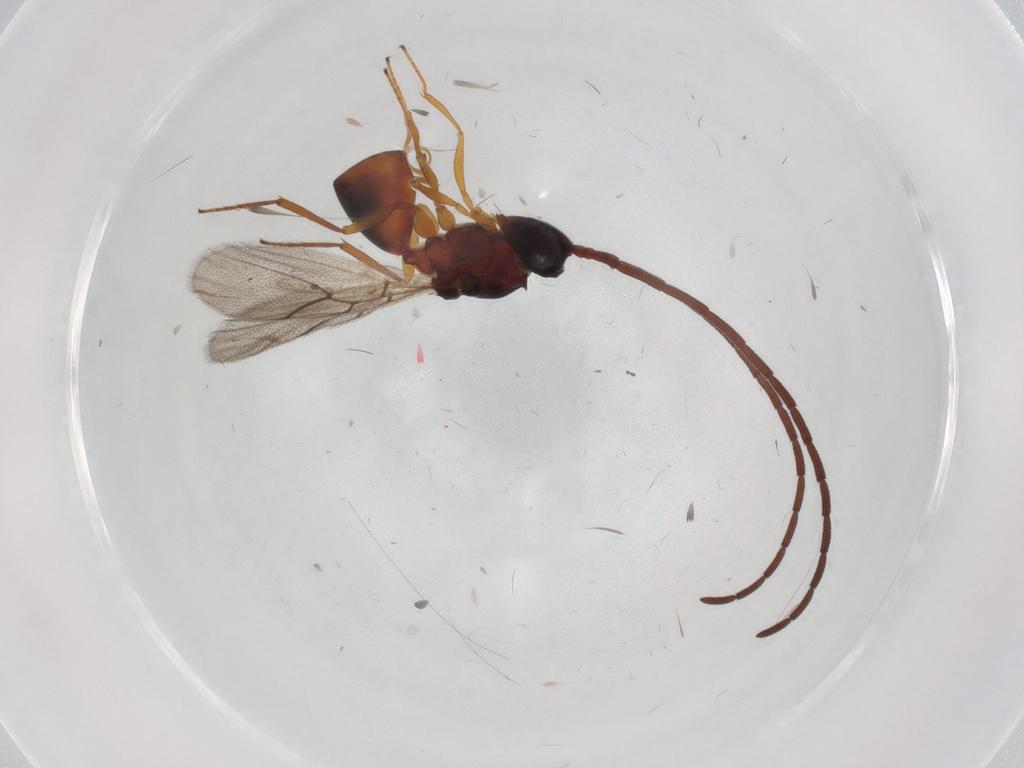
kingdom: Animalia
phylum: Arthropoda
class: Insecta
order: Hymenoptera
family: Figitidae
